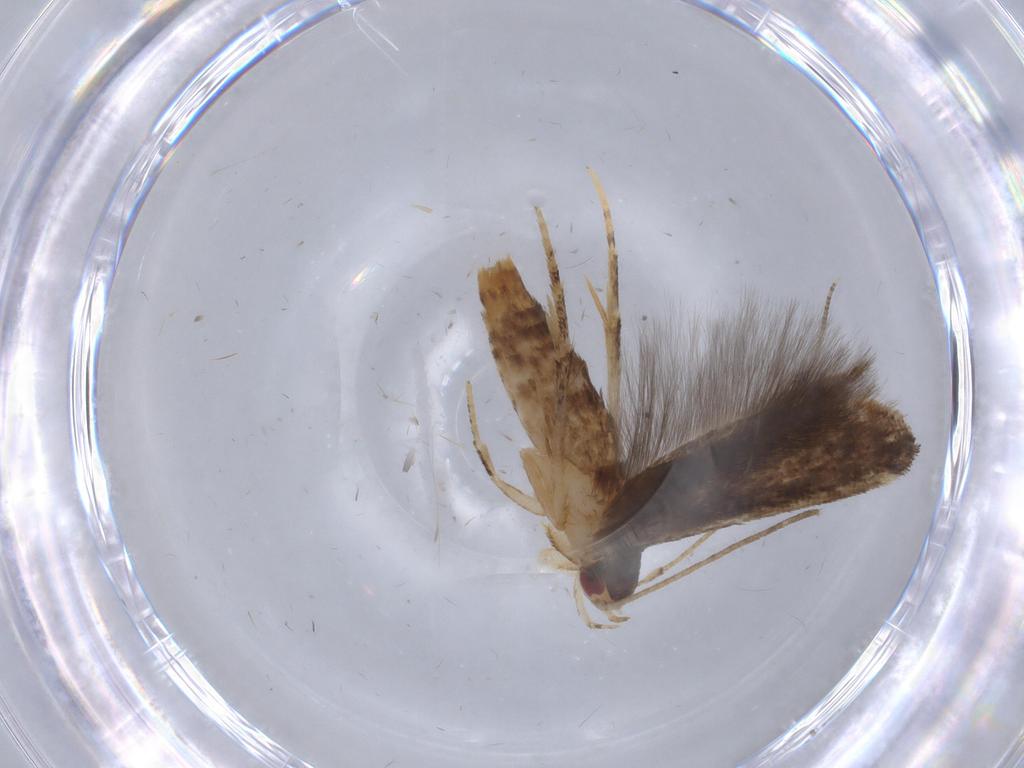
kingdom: Animalia
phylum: Arthropoda
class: Insecta
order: Lepidoptera
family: Momphidae
